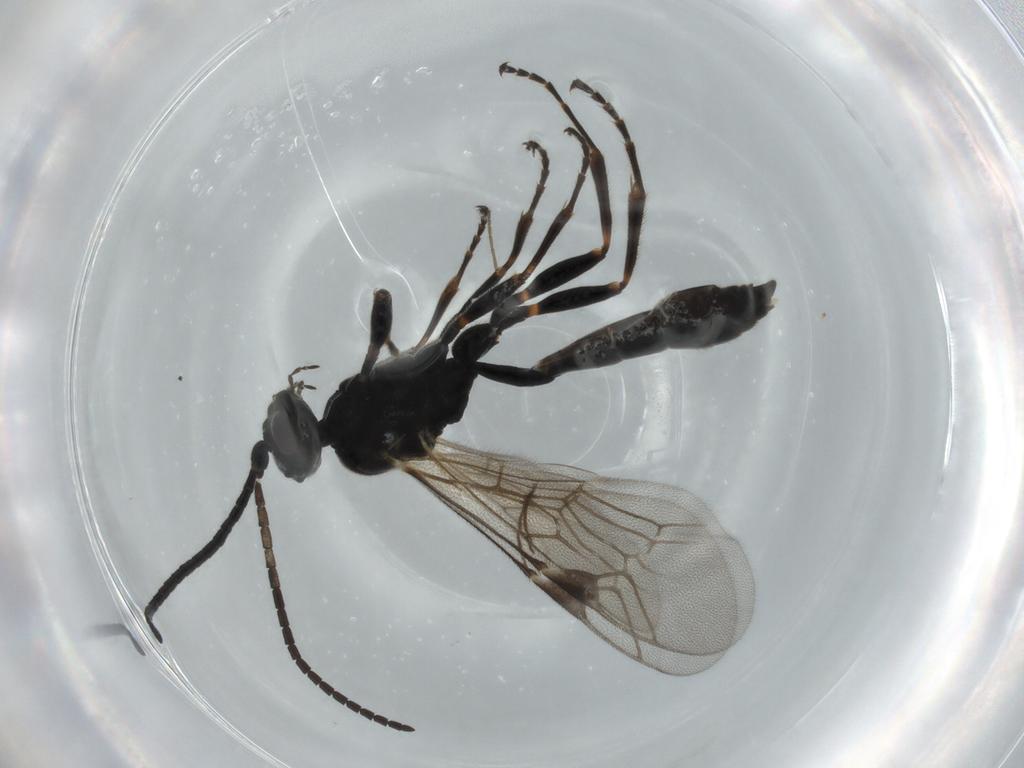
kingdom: Animalia
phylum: Arthropoda
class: Insecta
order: Hymenoptera
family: Ichneumonidae
